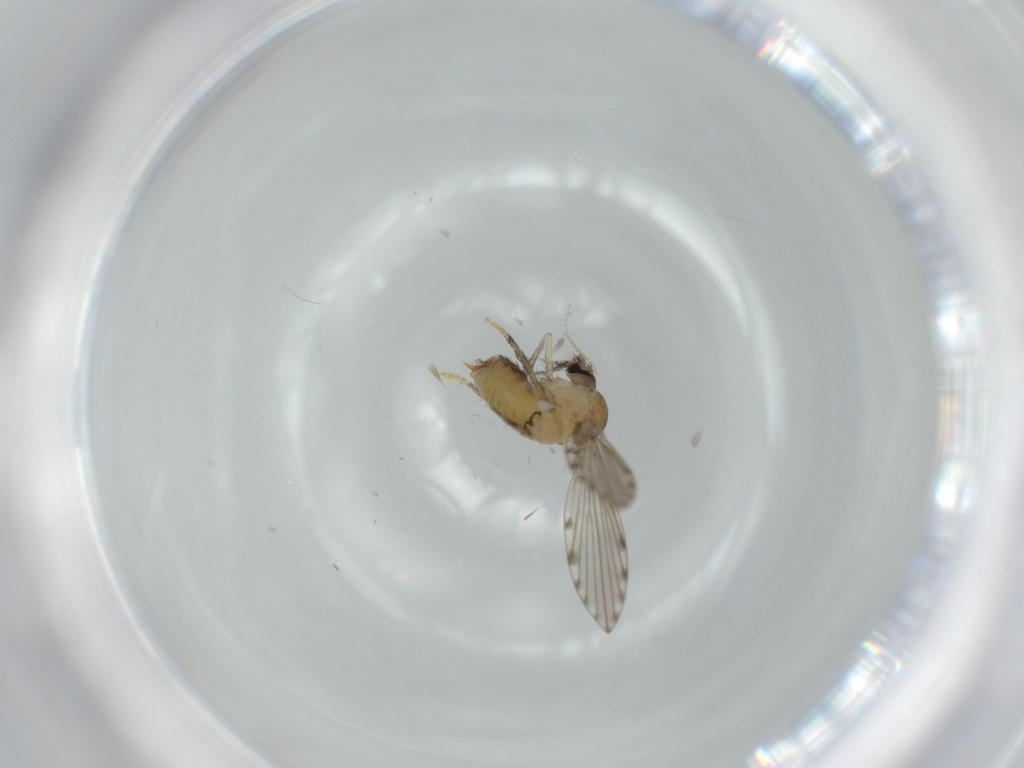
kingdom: Animalia
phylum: Arthropoda
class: Insecta
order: Diptera
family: Psychodidae
